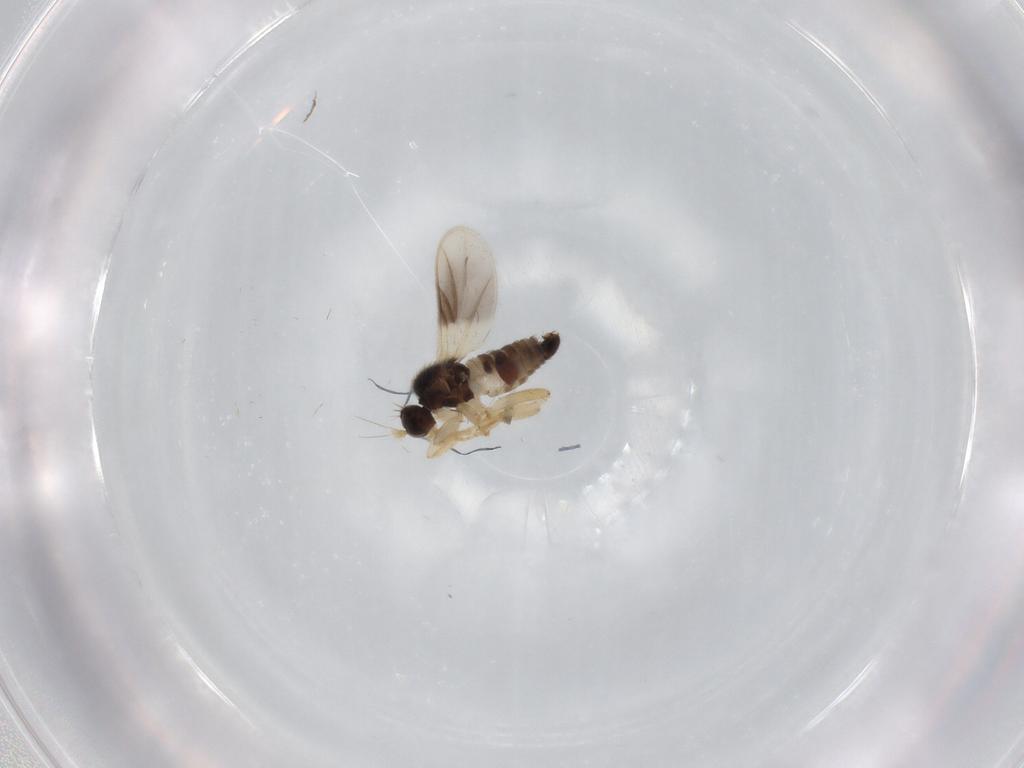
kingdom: Animalia
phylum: Arthropoda
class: Insecta
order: Diptera
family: Hybotidae
